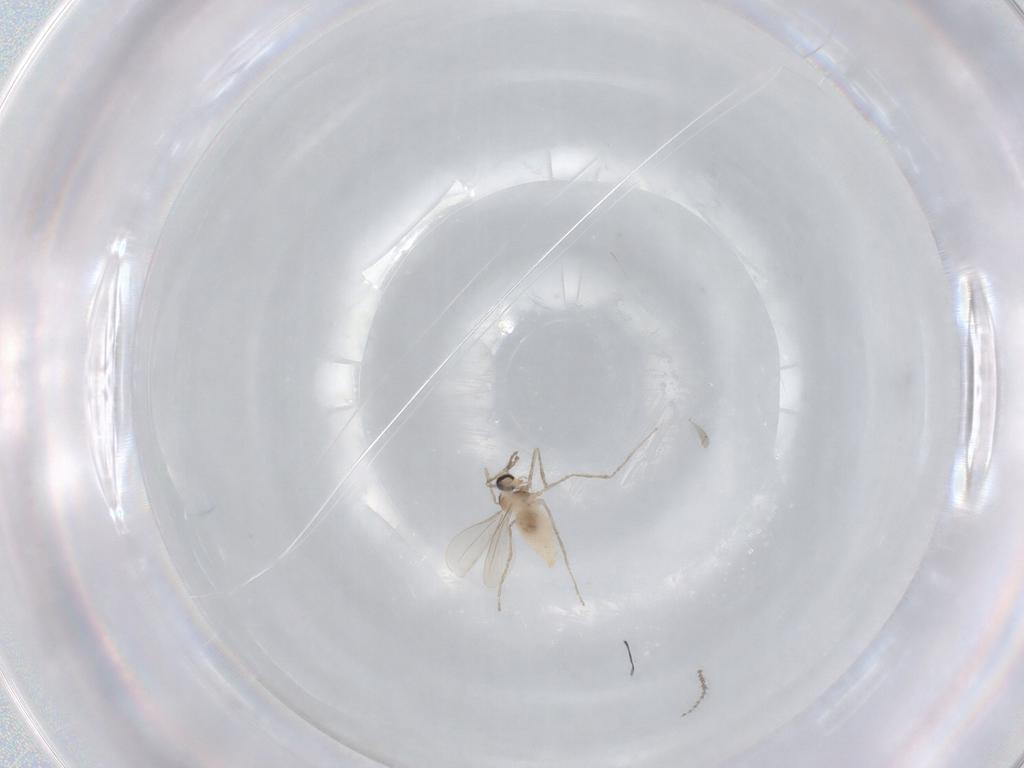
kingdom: Animalia
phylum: Arthropoda
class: Insecta
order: Diptera
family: Cecidomyiidae
